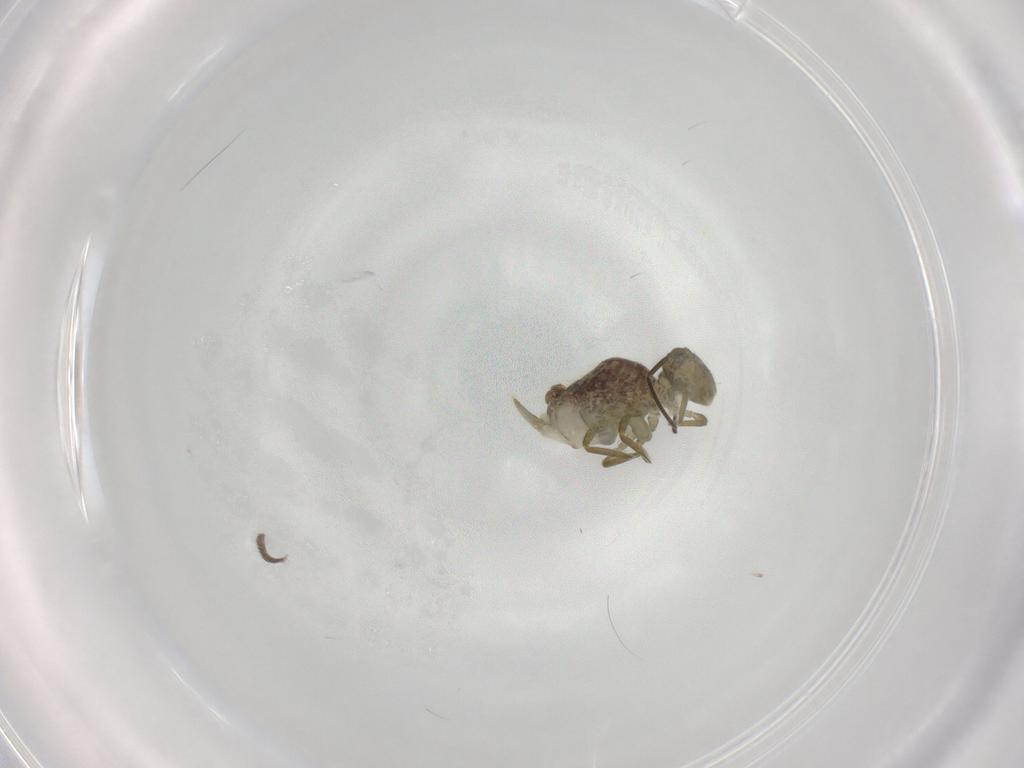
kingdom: Animalia
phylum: Arthropoda
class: Collembola
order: Symphypleona
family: Sminthuridae
